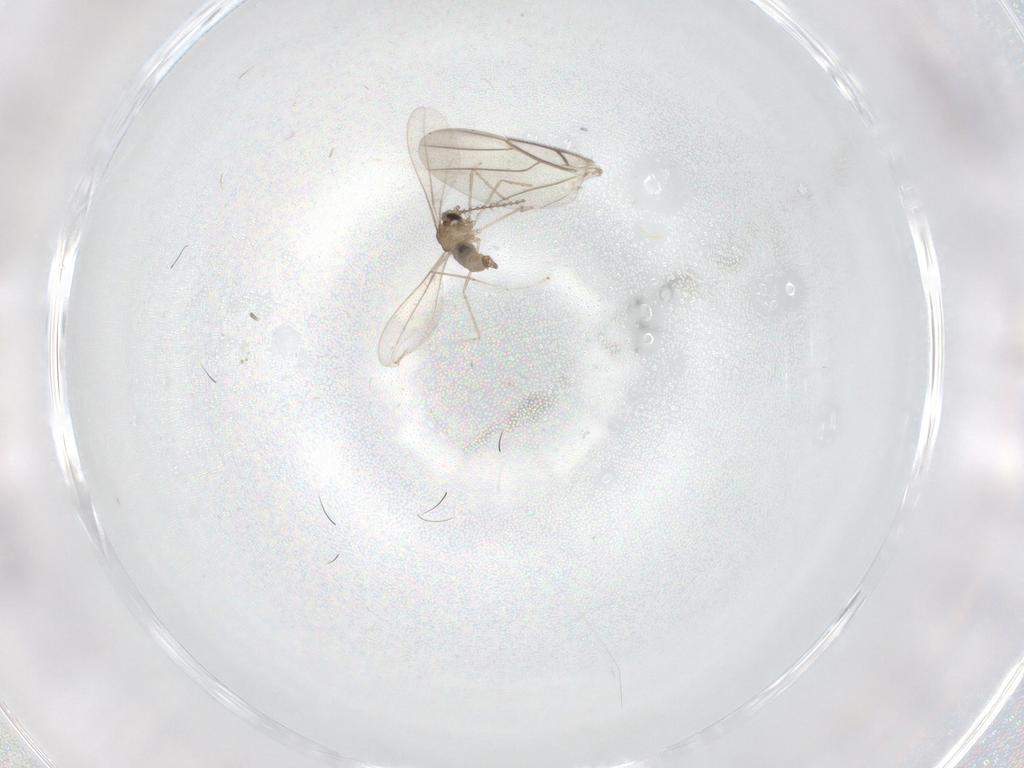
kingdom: Animalia
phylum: Arthropoda
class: Insecta
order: Diptera
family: Cecidomyiidae
